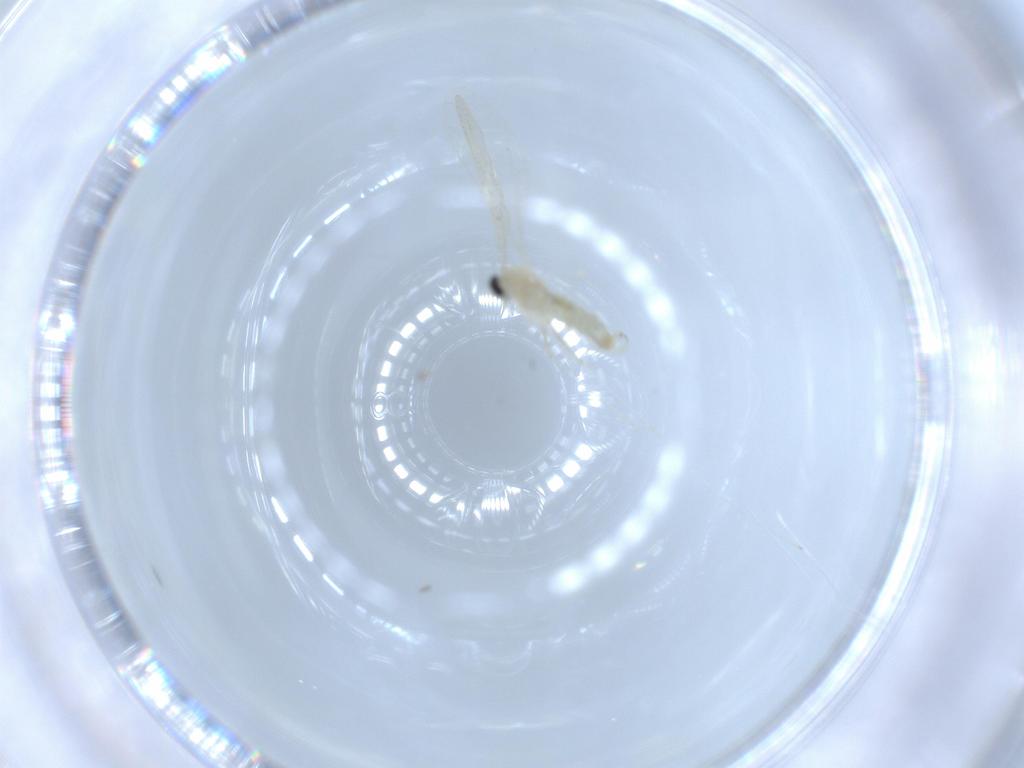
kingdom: Animalia
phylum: Arthropoda
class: Insecta
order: Diptera
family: Cecidomyiidae
